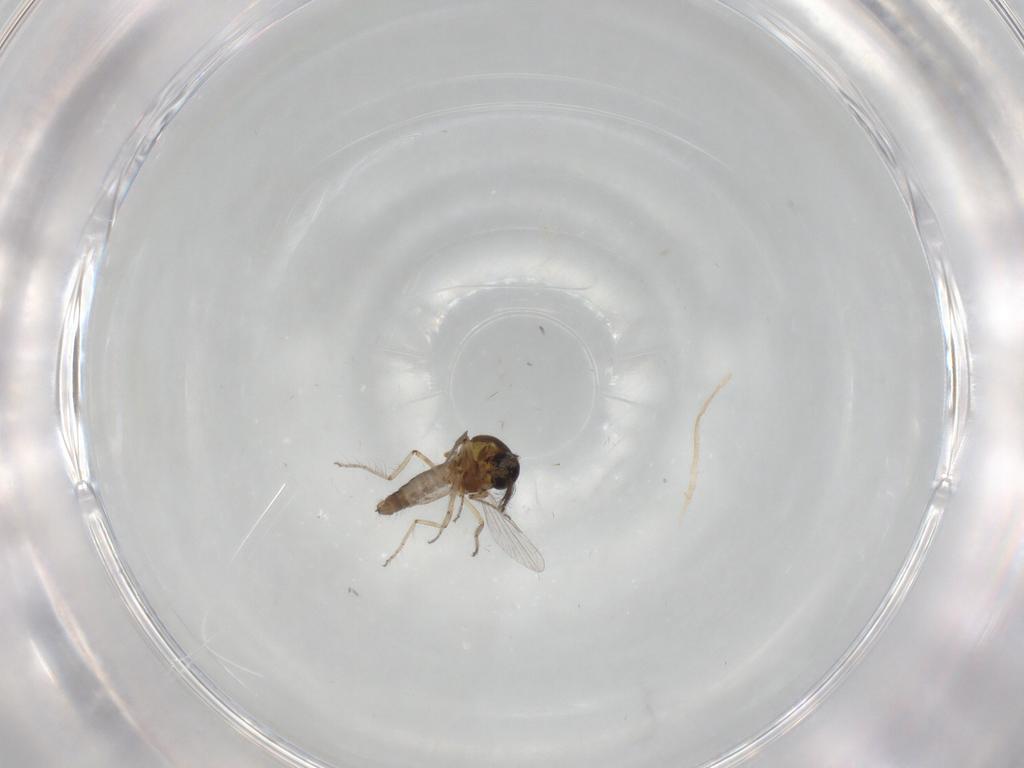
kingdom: Animalia
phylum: Arthropoda
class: Insecta
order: Diptera
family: Ceratopogonidae
